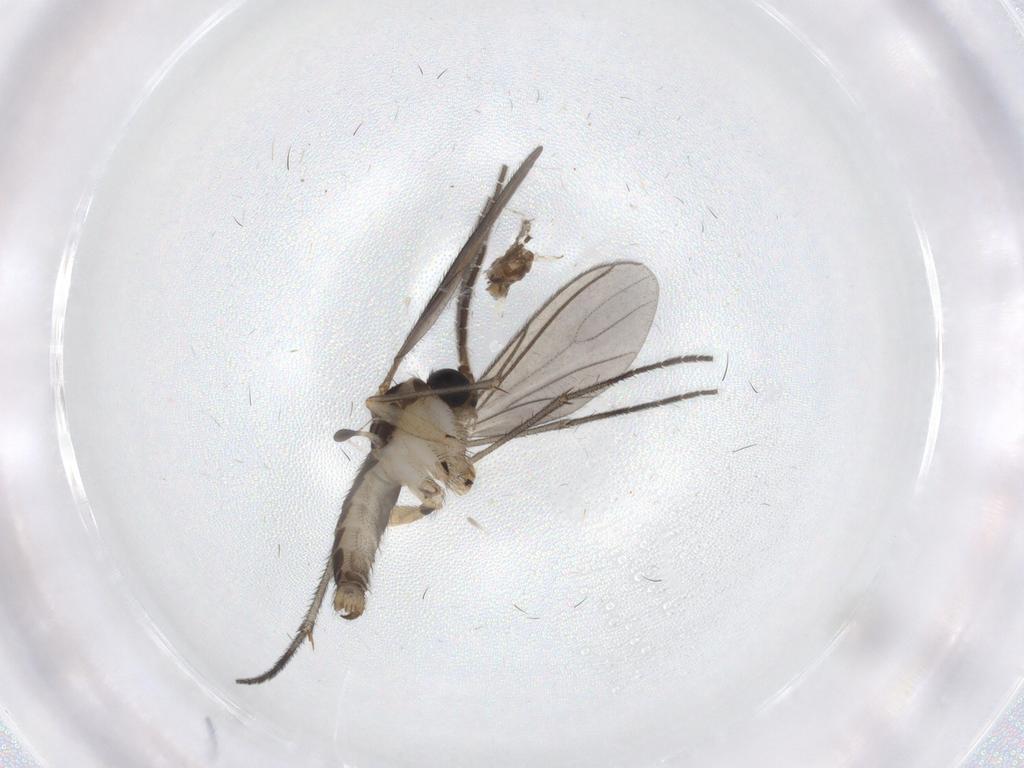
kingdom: Animalia
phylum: Arthropoda
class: Insecta
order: Diptera
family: Sciaridae
